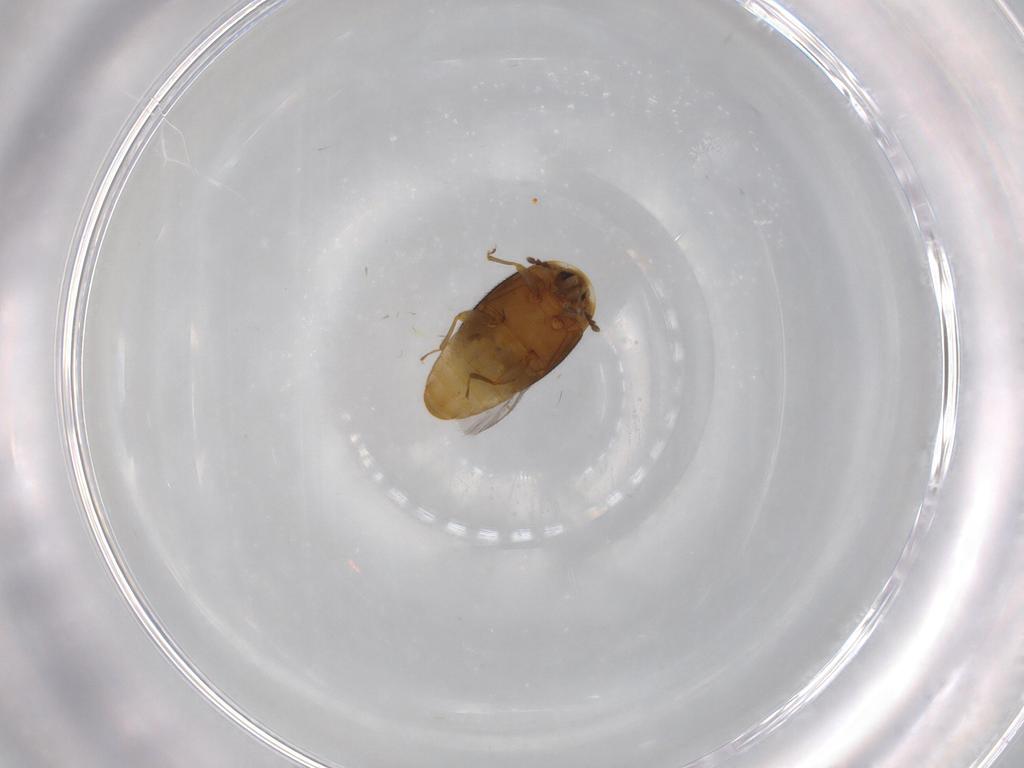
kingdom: Animalia
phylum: Arthropoda
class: Insecta
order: Coleoptera
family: Corylophidae
